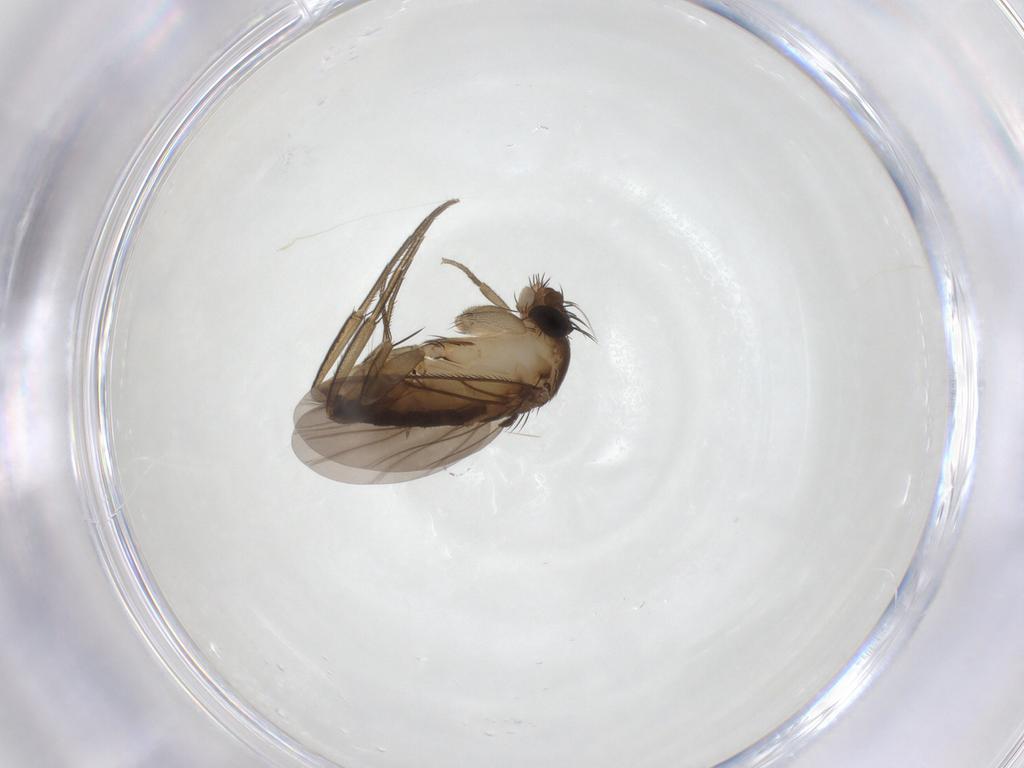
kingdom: Animalia
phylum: Arthropoda
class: Insecta
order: Diptera
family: Phoridae
